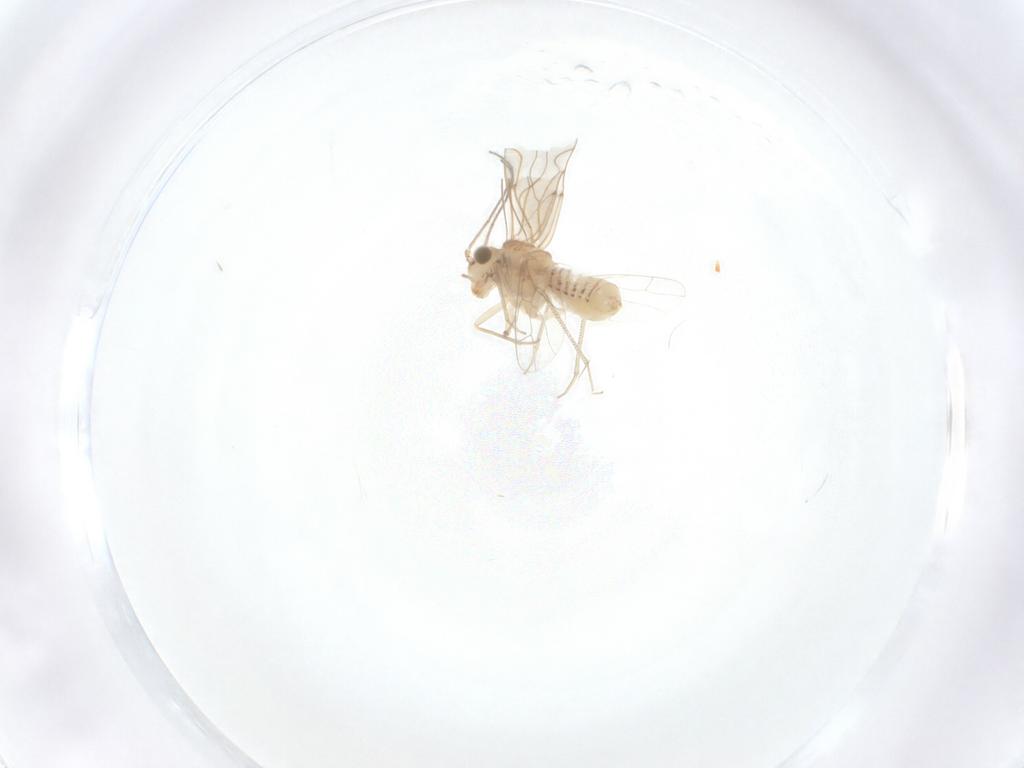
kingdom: Animalia
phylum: Arthropoda
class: Insecta
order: Psocodea
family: Lachesillidae
